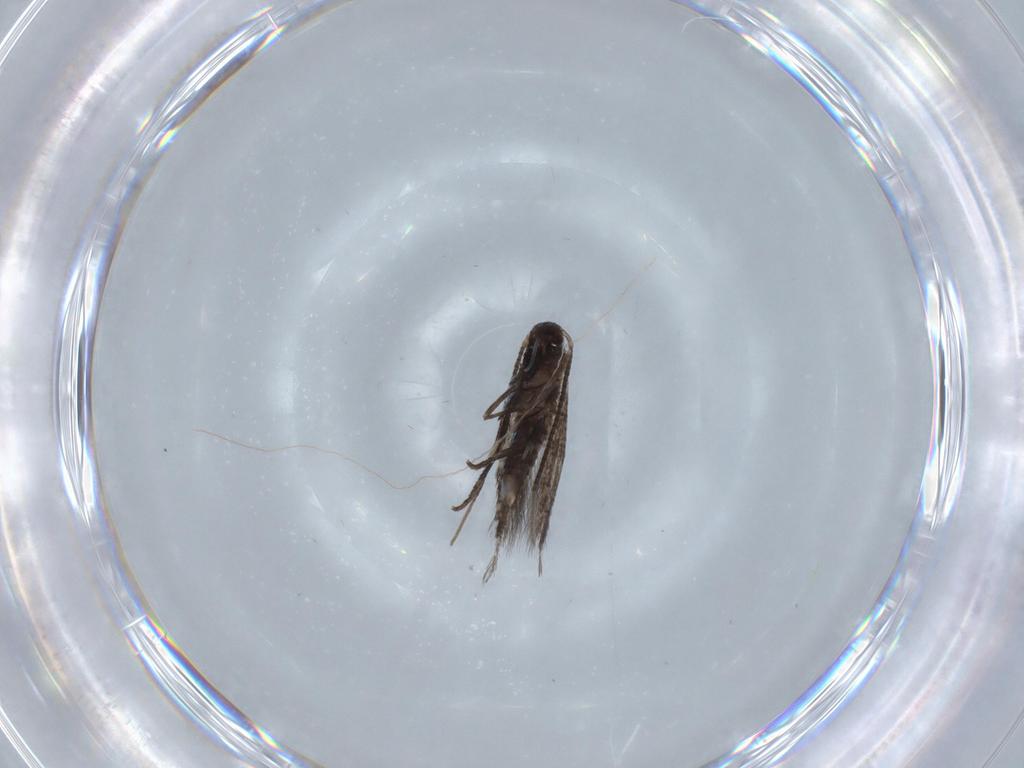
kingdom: Animalia
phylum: Arthropoda
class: Insecta
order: Lepidoptera
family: Gracillariidae
